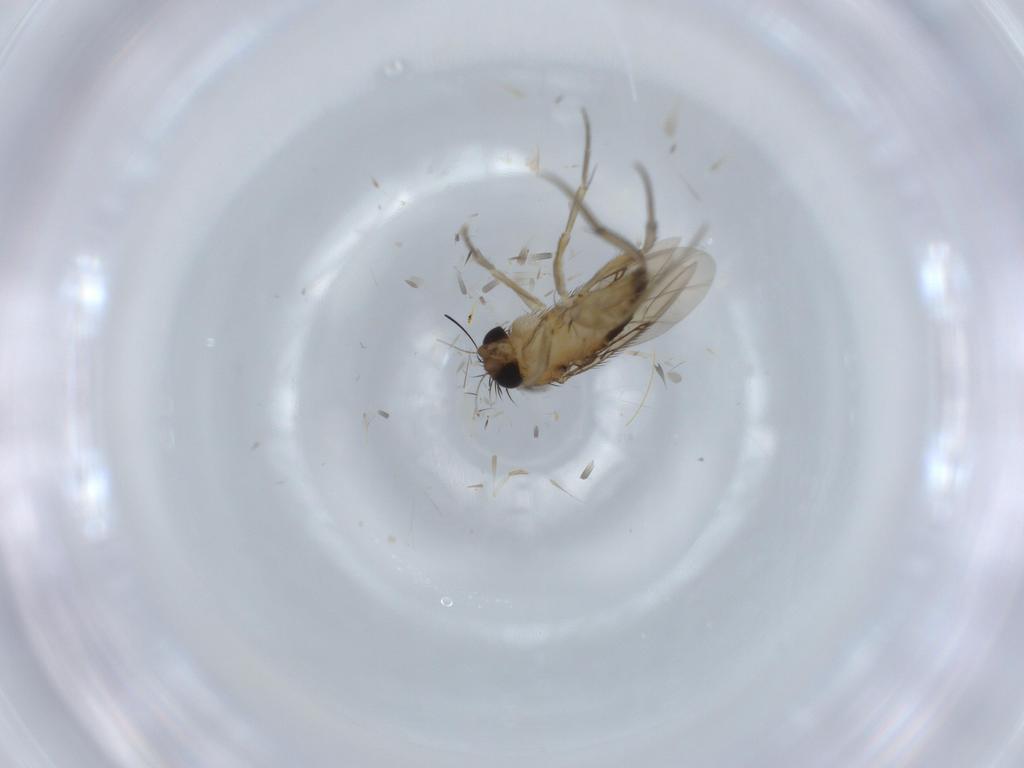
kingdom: Animalia
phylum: Arthropoda
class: Insecta
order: Diptera
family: Phoridae
